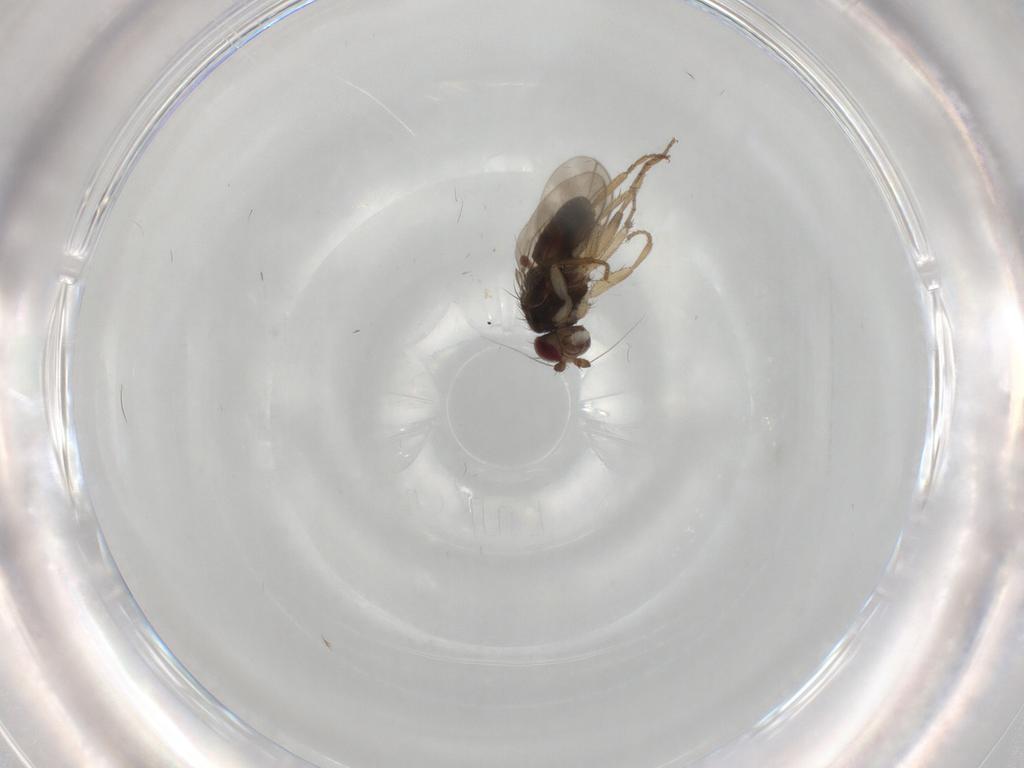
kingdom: Animalia
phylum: Arthropoda
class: Insecta
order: Diptera
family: Sphaeroceridae
